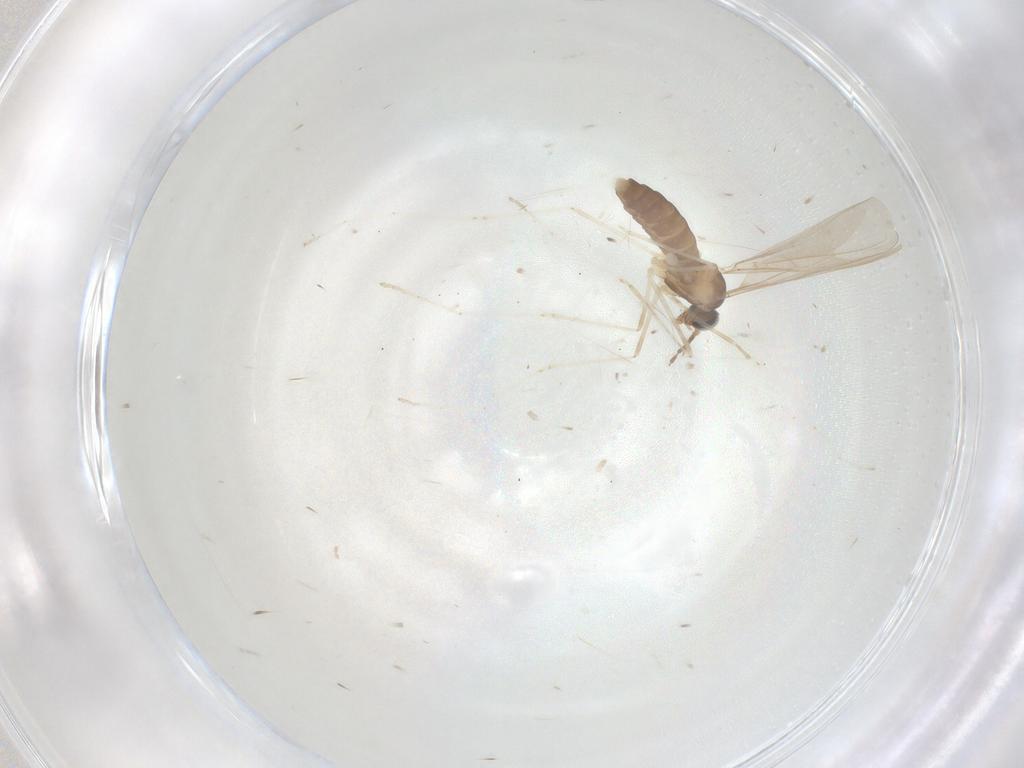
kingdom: Animalia
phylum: Arthropoda
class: Insecta
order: Diptera
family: Cecidomyiidae
